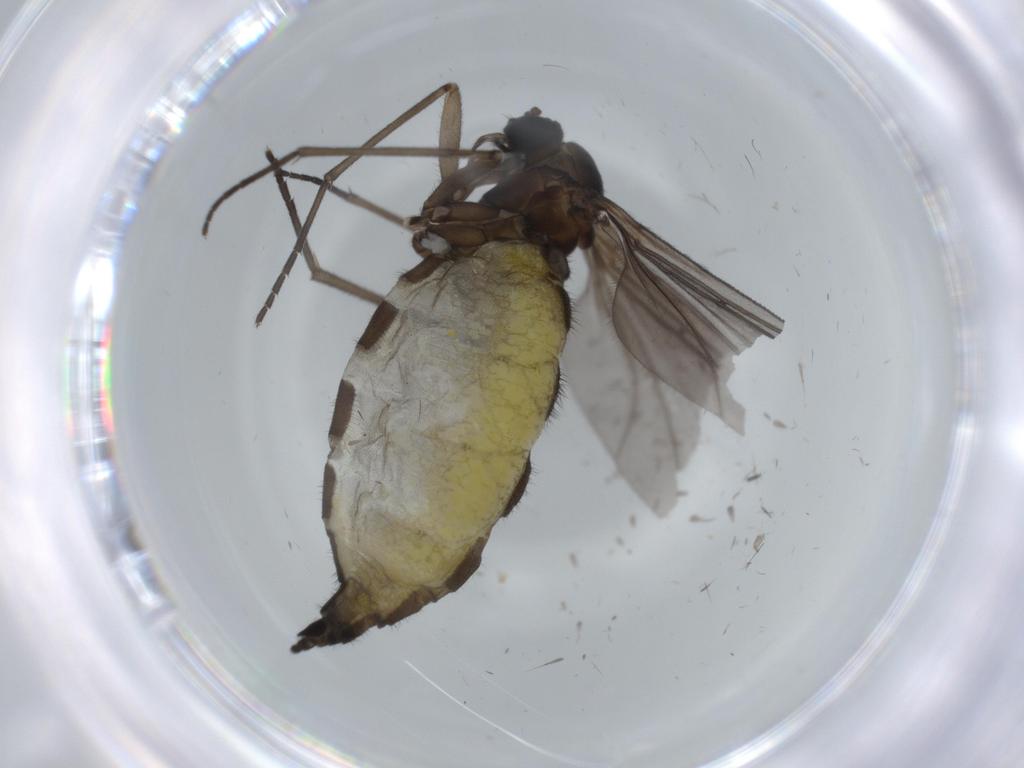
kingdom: Animalia
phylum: Arthropoda
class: Insecta
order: Diptera
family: Sciaridae
